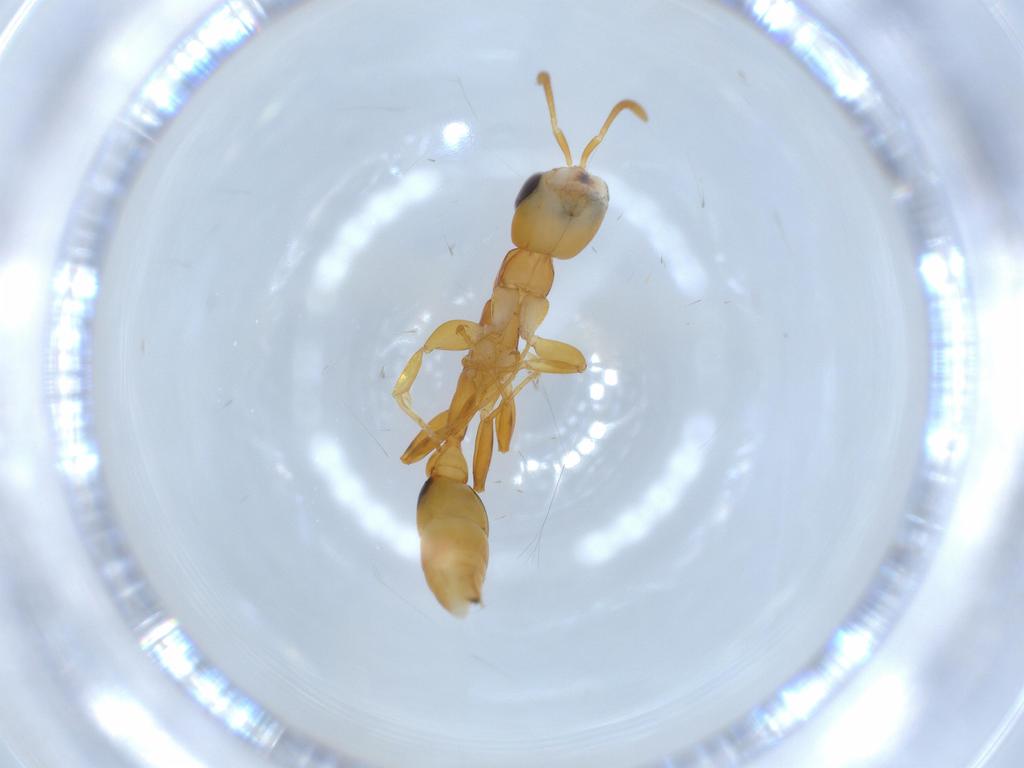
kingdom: Animalia
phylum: Arthropoda
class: Insecta
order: Hymenoptera
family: Formicidae
